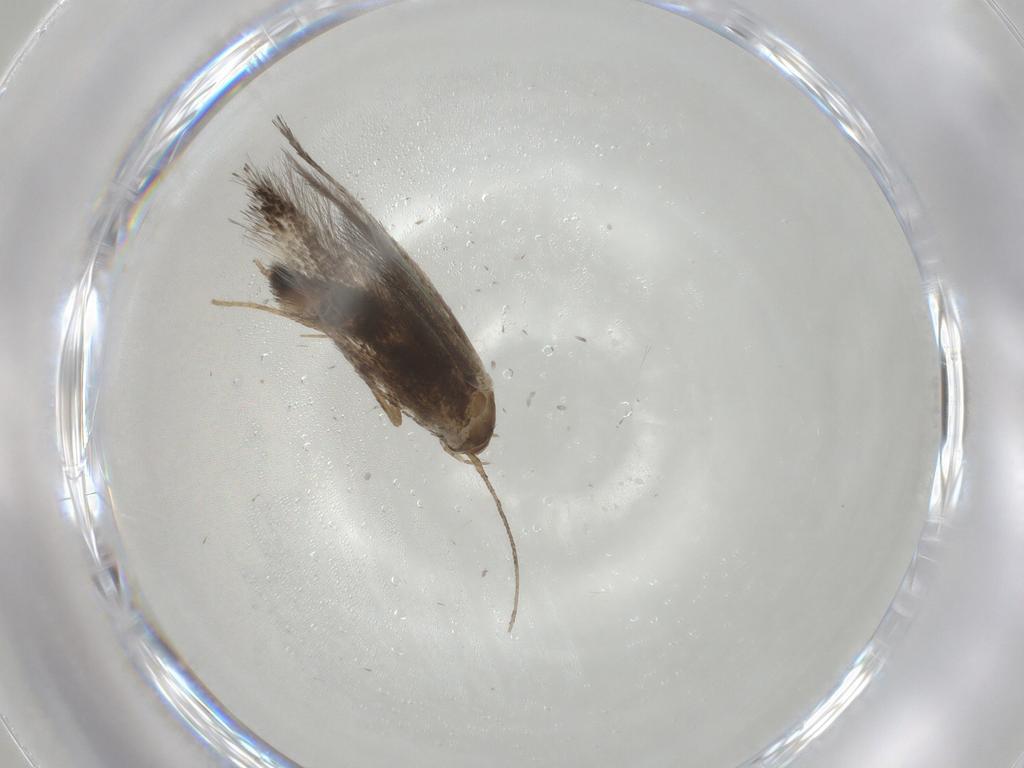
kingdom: Animalia
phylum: Arthropoda
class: Insecta
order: Lepidoptera
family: Elachistidae
